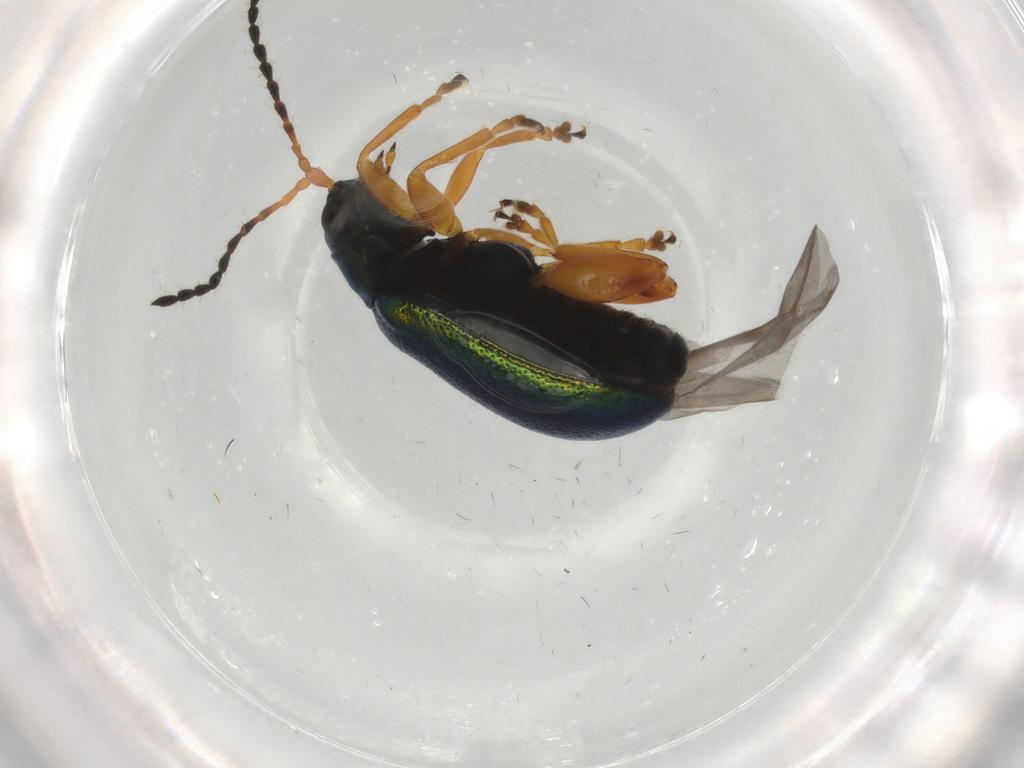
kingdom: Animalia
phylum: Arthropoda
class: Insecta
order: Coleoptera
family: Chrysomelidae
